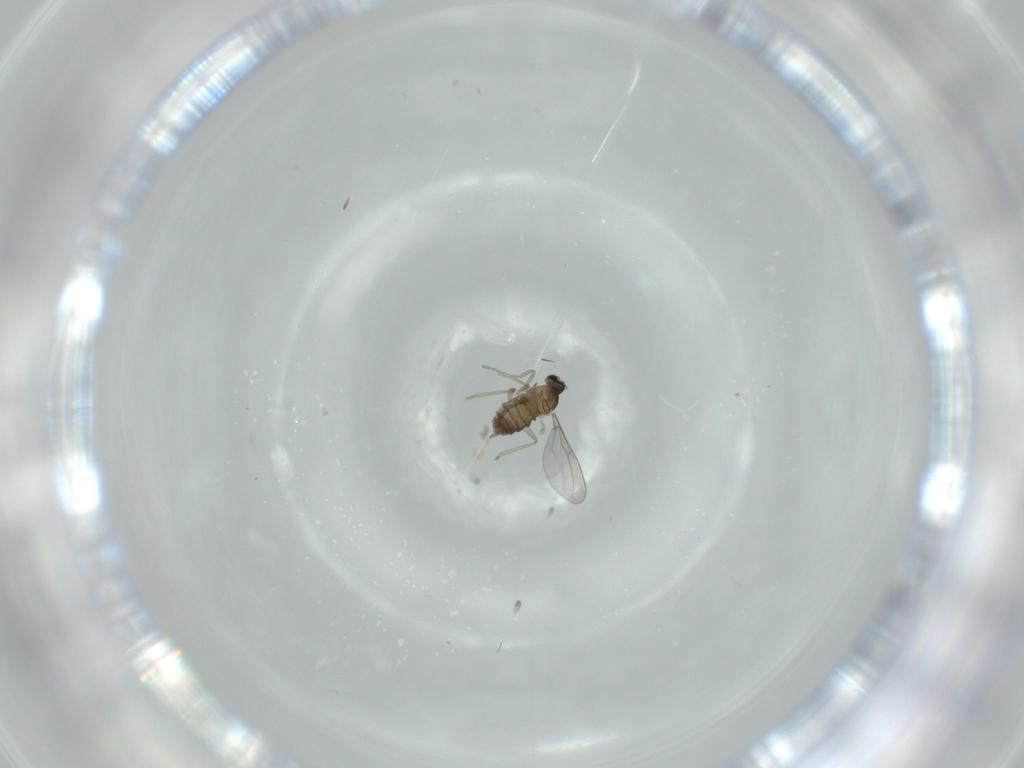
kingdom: Animalia
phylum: Arthropoda
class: Insecta
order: Diptera
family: Cecidomyiidae
